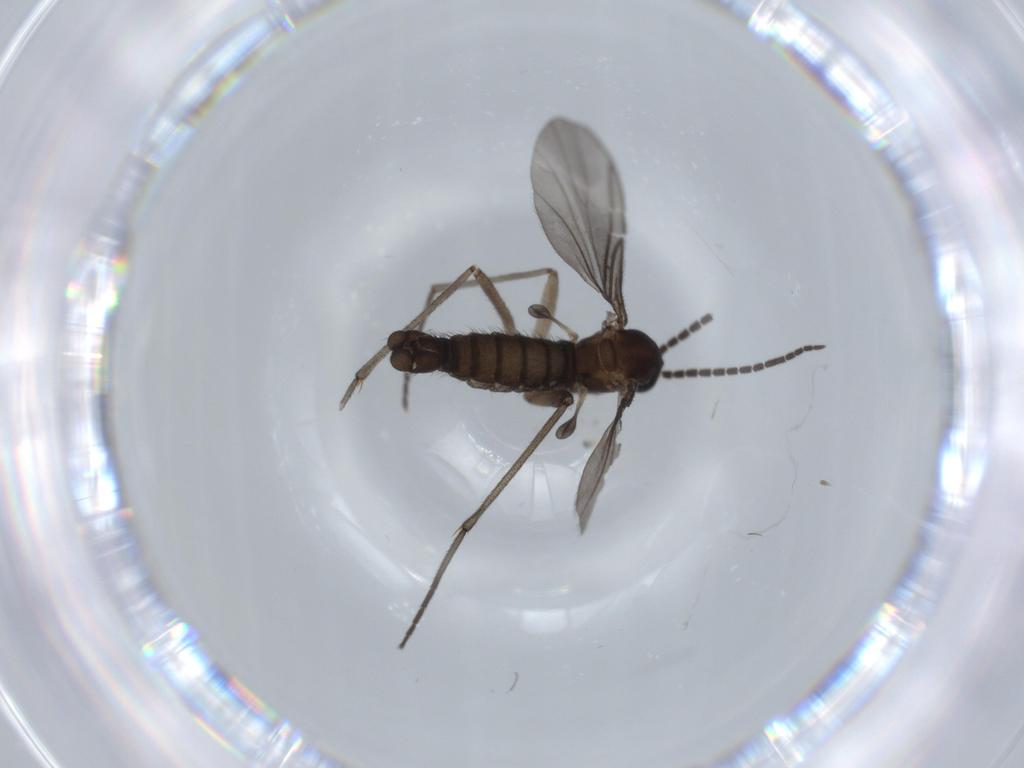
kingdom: Animalia
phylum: Arthropoda
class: Insecta
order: Diptera
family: Sciaridae
